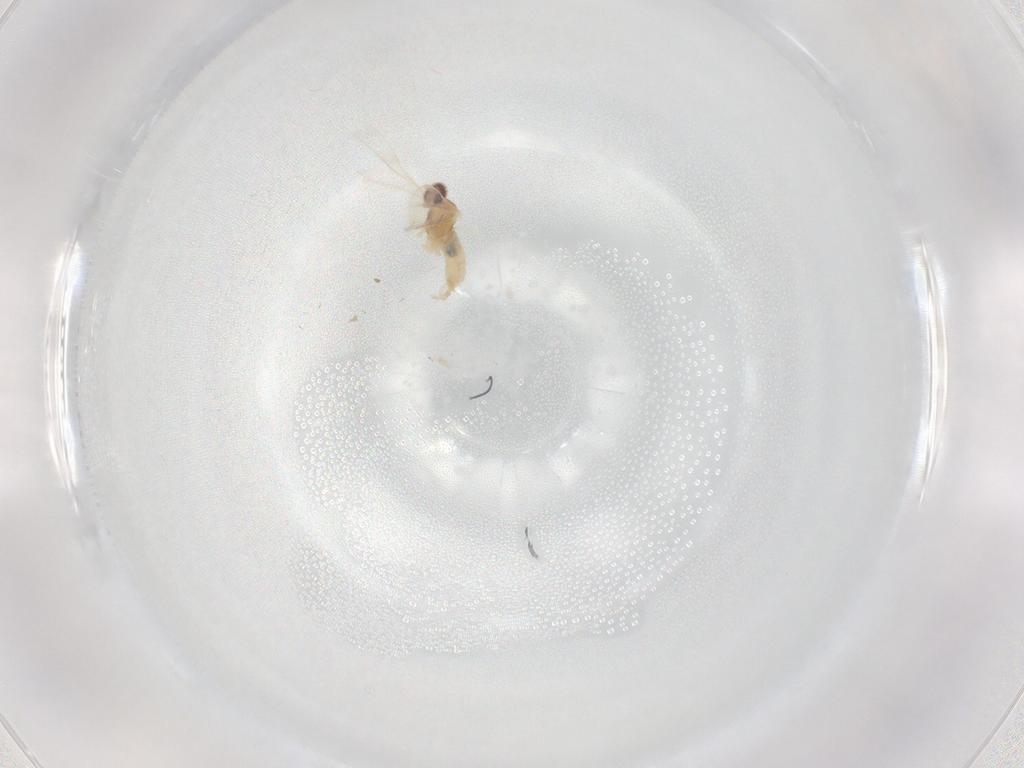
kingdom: Animalia
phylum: Arthropoda
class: Insecta
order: Diptera
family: Cecidomyiidae
